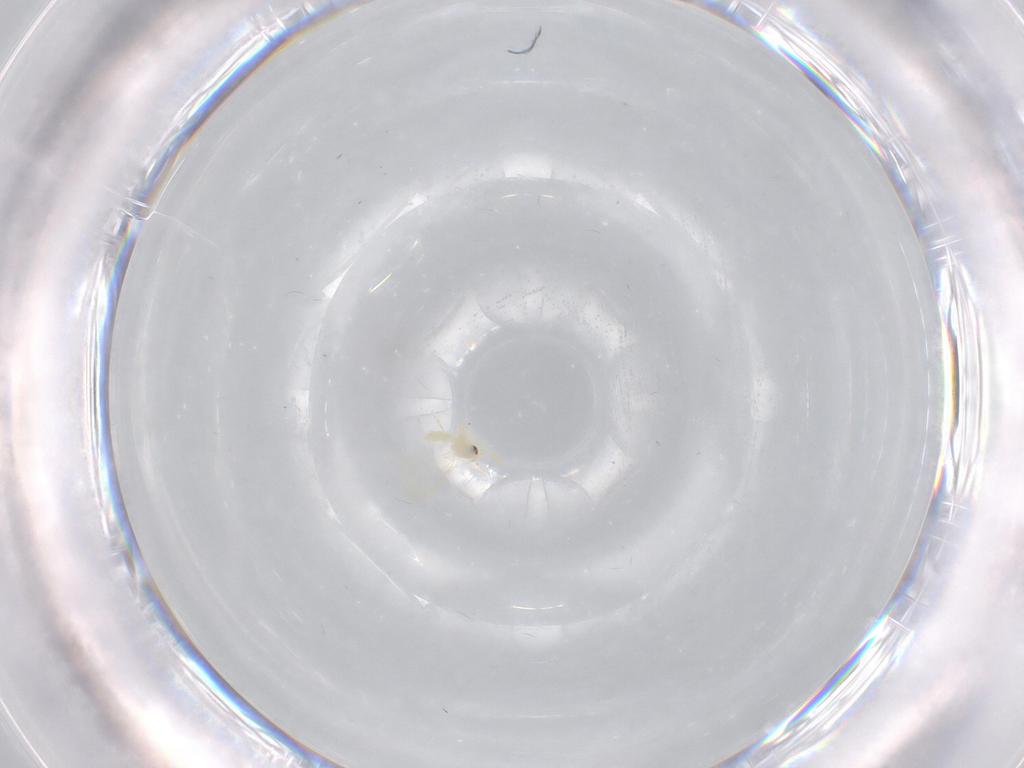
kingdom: Animalia
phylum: Arthropoda
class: Insecta
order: Hemiptera
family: Aleyrodidae
